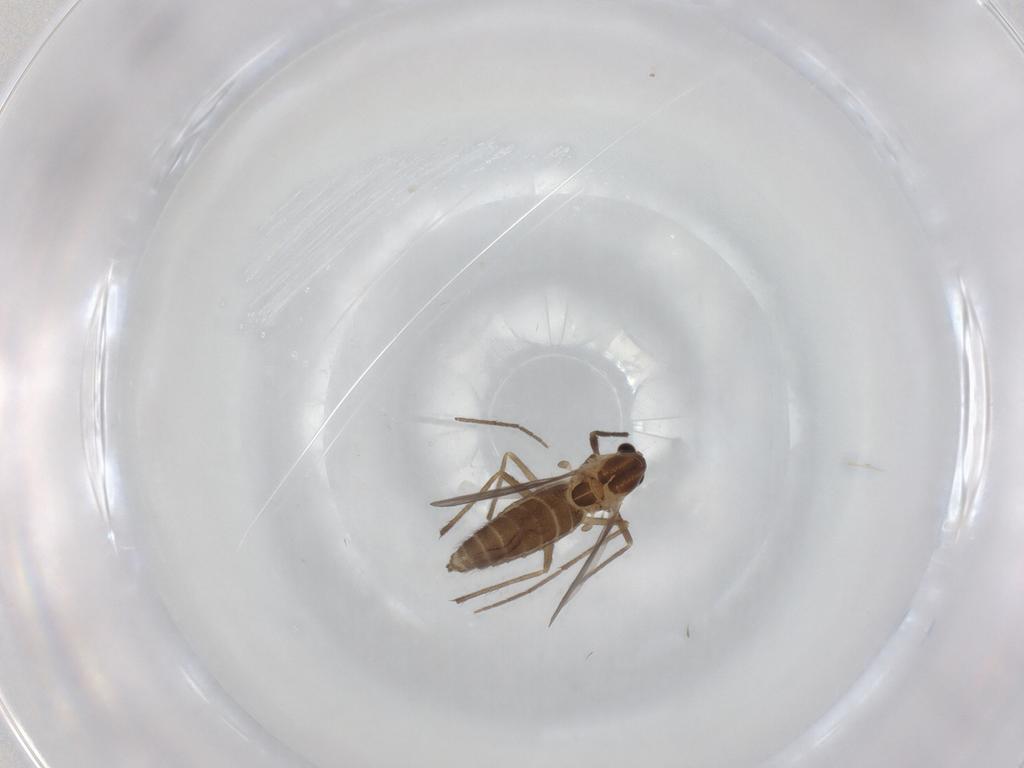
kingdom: Animalia
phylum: Arthropoda
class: Insecta
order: Diptera
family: Chironomidae
